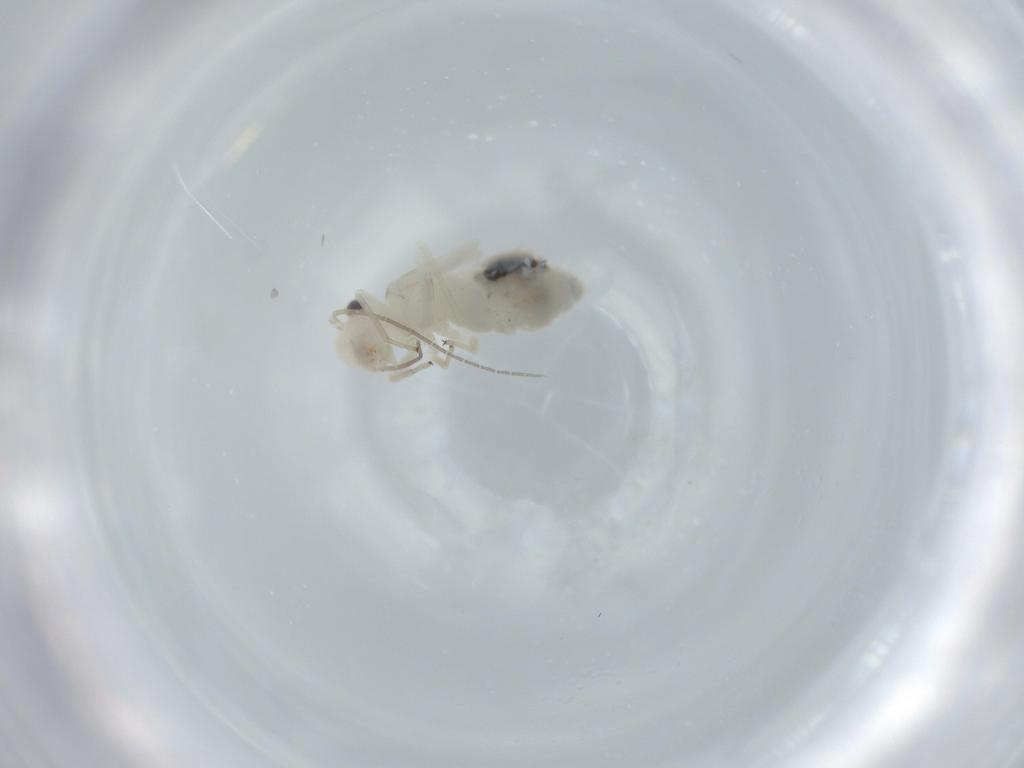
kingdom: Animalia
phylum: Arthropoda
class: Insecta
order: Psocodea
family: Caeciliusidae
